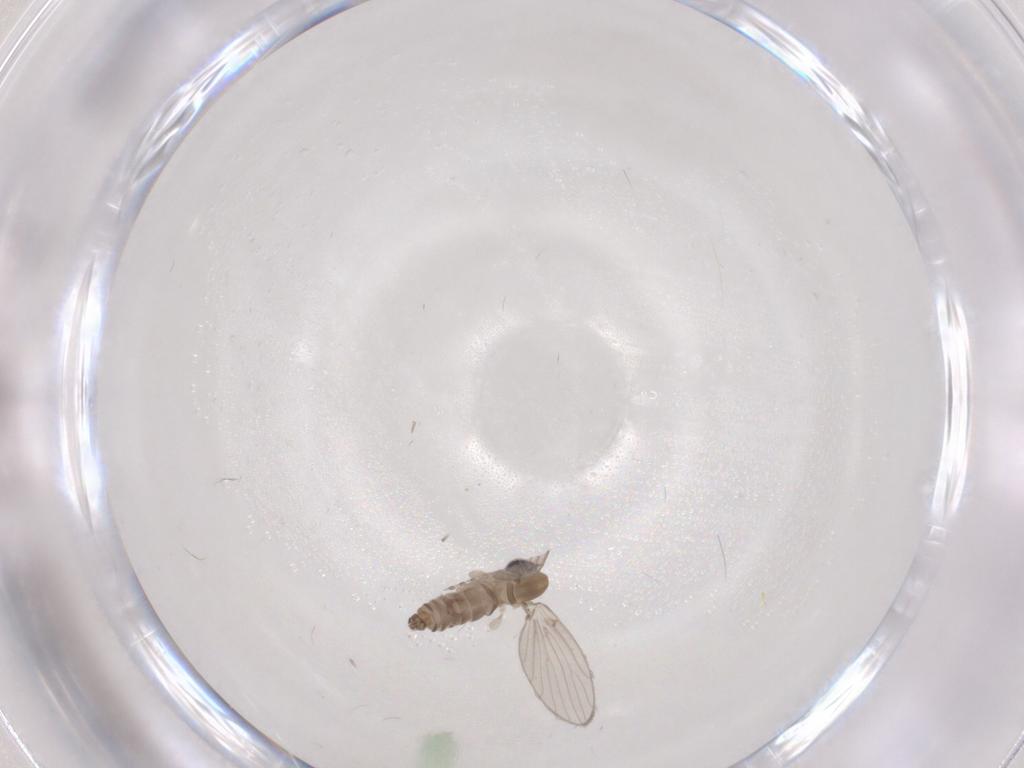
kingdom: Animalia
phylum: Arthropoda
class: Insecta
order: Diptera
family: Psychodidae
